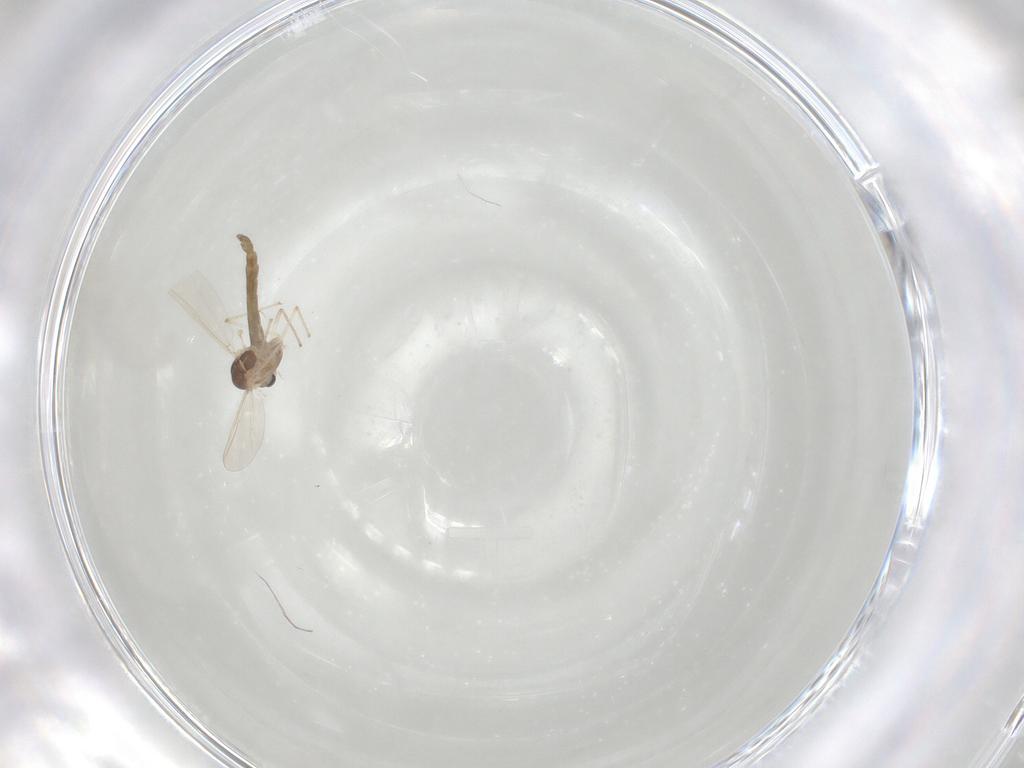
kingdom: Animalia
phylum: Arthropoda
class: Insecta
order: Diptera
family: Chironomidae
